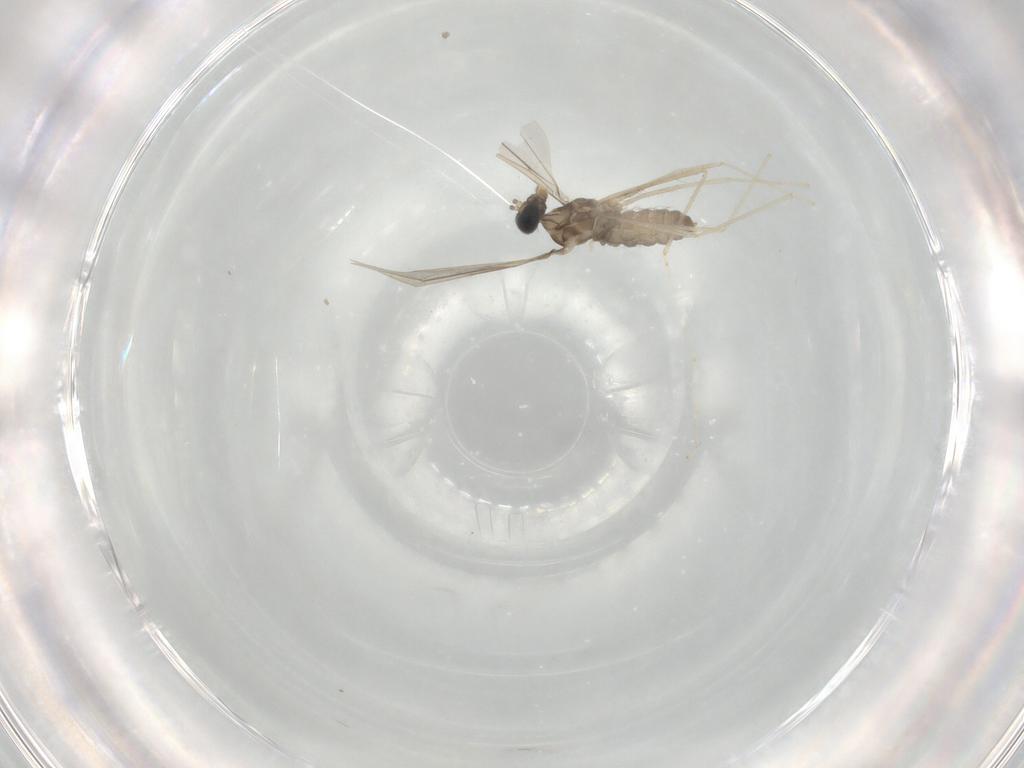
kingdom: Animalia
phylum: Arthropoda
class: Insecta
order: Diptera
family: Cecidomyiidae
